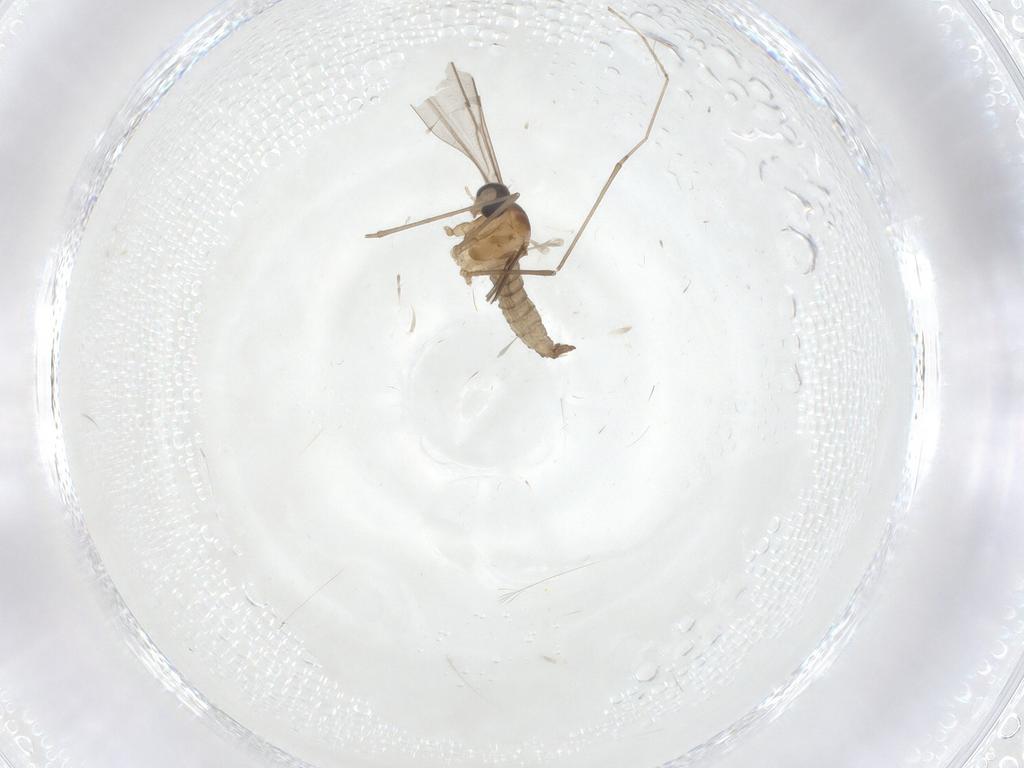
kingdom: Animalia
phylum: Arthropoda
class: Insecta
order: Diptera
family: Cecidomyiidae
